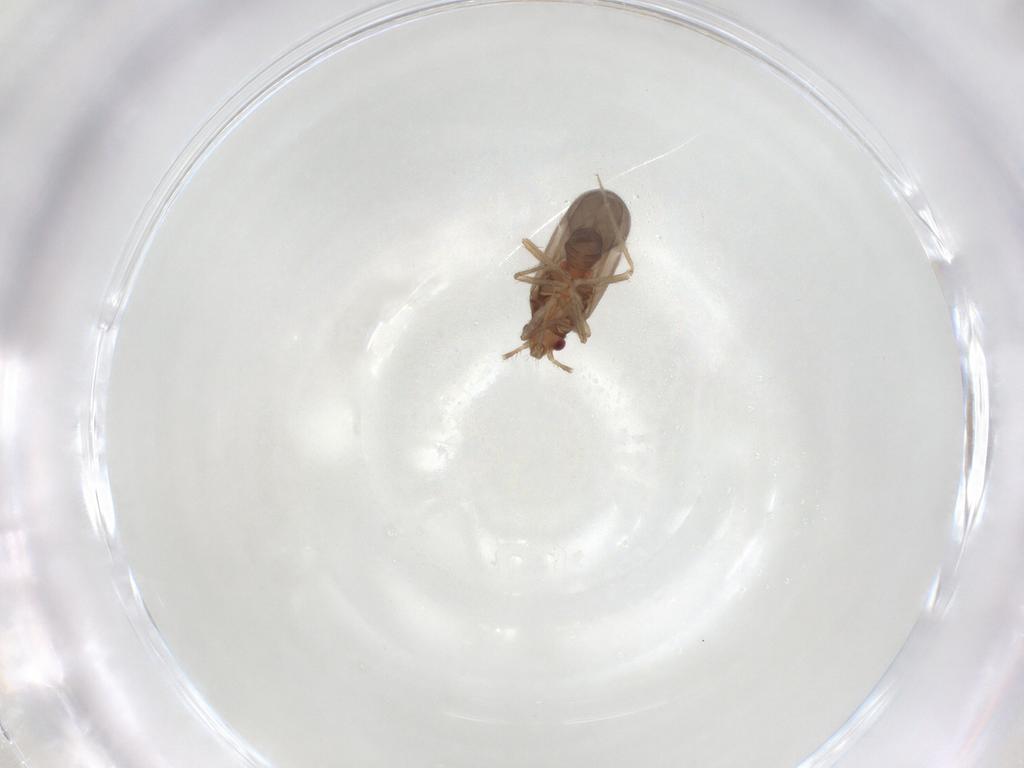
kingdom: Animalia
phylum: Arthropoda
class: Insecta
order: Hemiptera
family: Ceratocombidae
